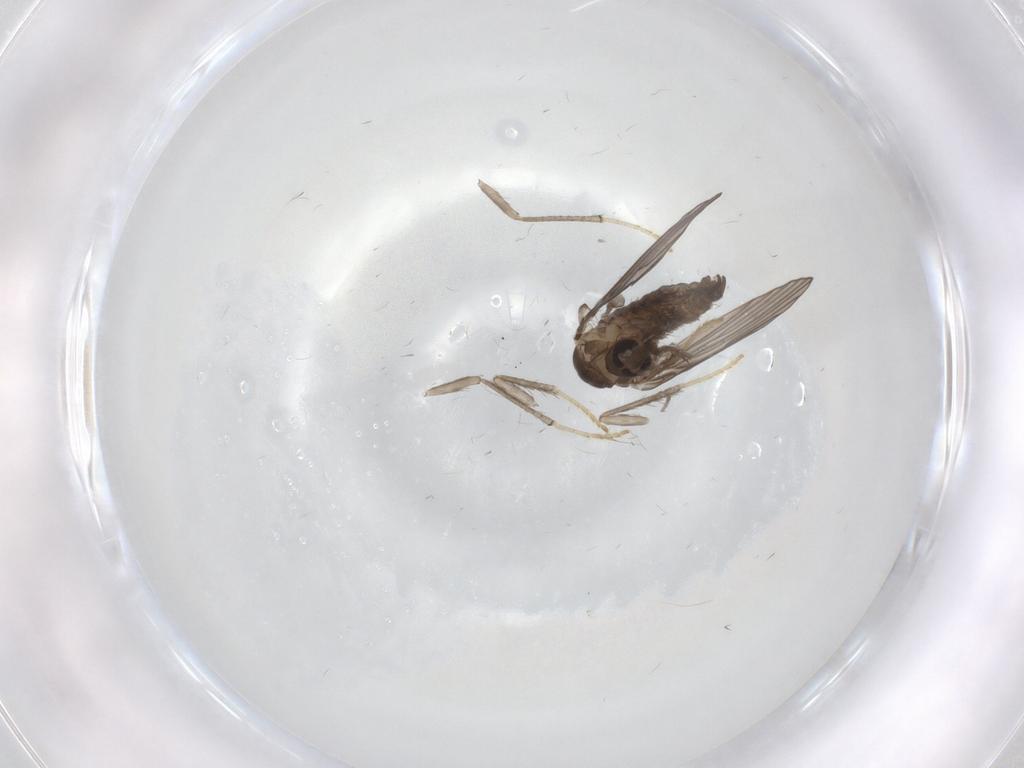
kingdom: Animalia
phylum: Arthropoda
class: Insecta
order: Diptera
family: Psychodidae
